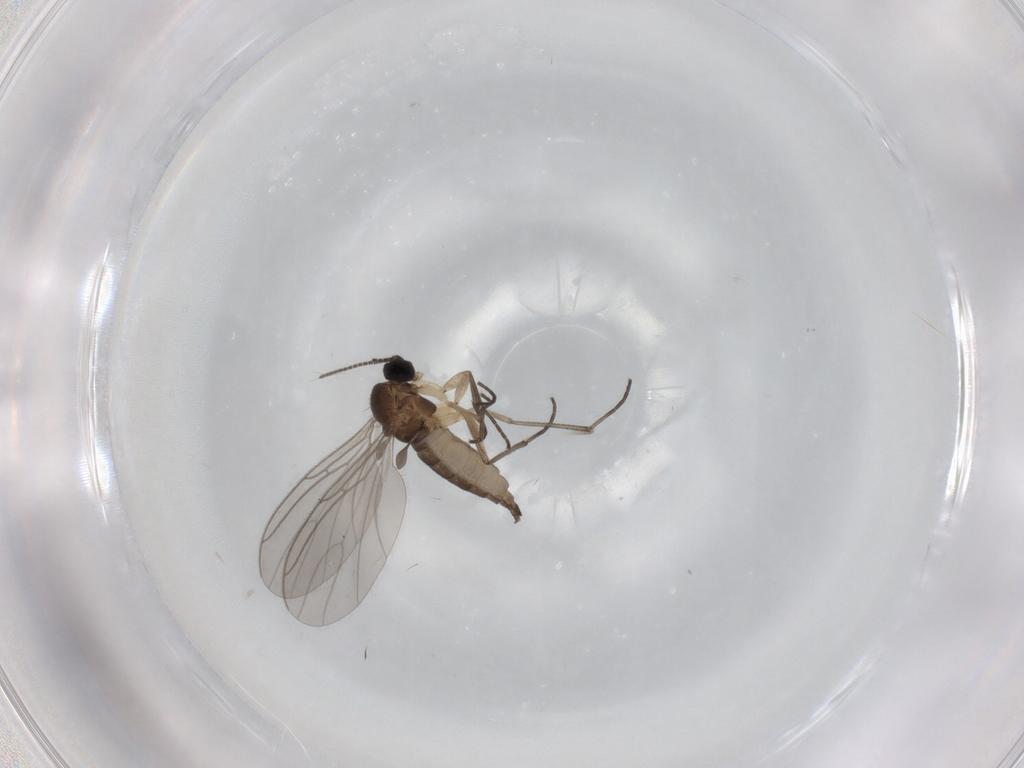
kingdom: Animalia
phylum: Arthropoda
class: Insecta
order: Diptera
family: Sciaridae
